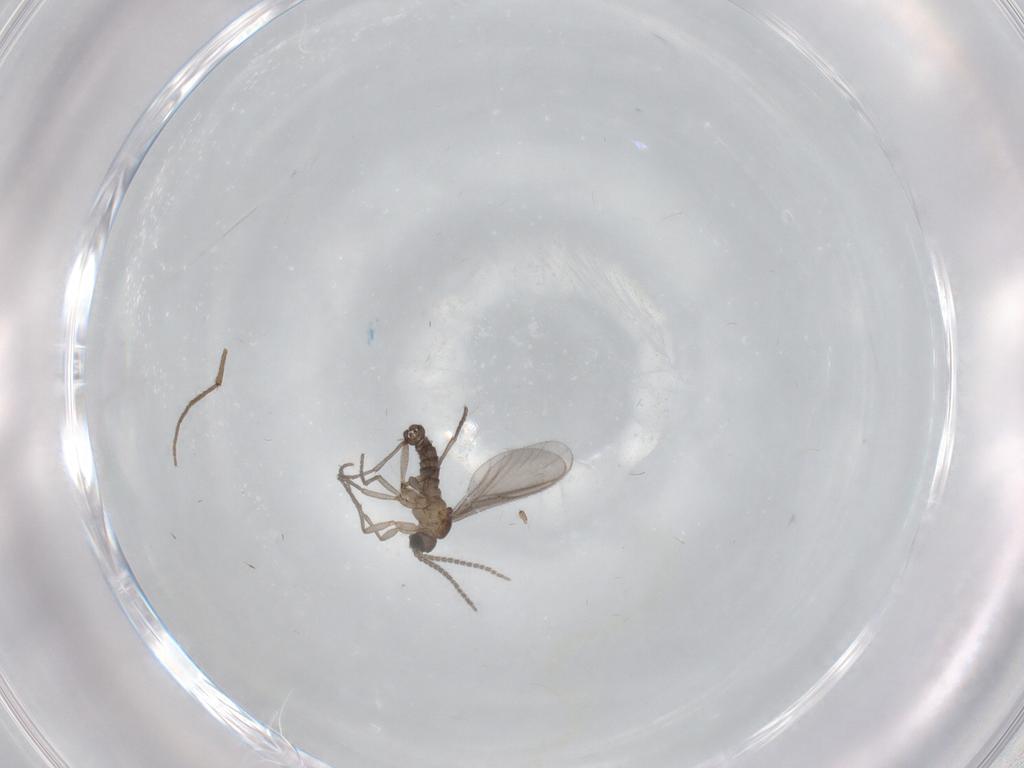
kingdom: Animalia
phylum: Arthropoda
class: Insecta
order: Diptera
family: Sciaridae
